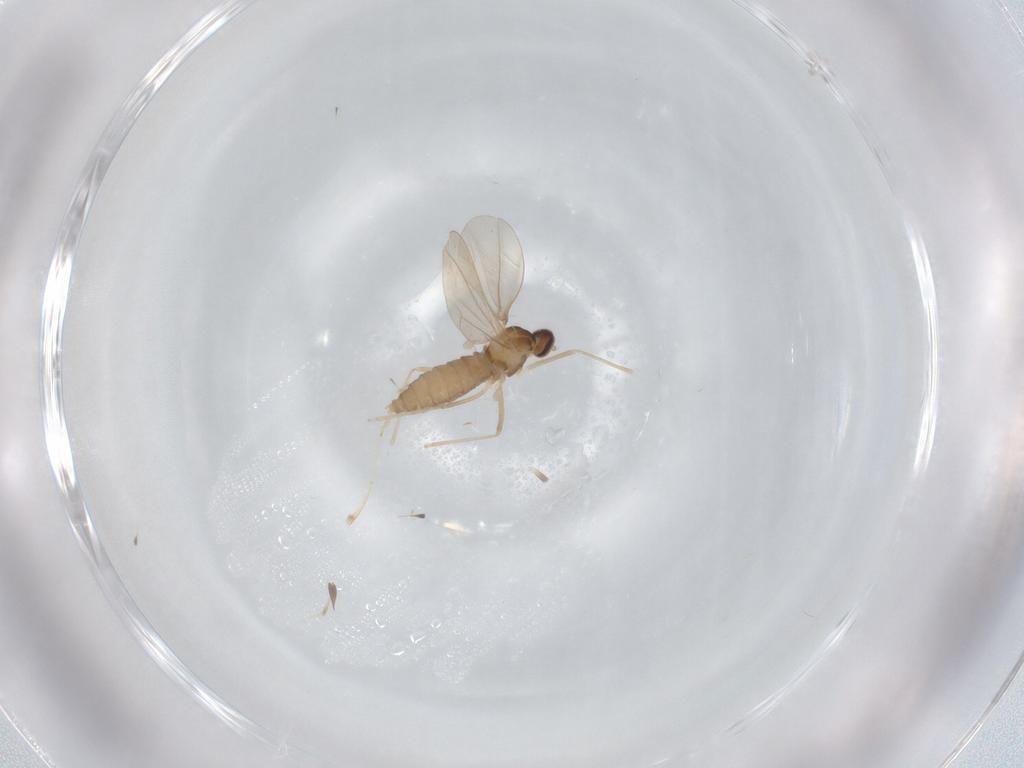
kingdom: Animalia
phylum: Arthropoda
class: Insecta
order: Diptera
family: Cecidomyiidae
